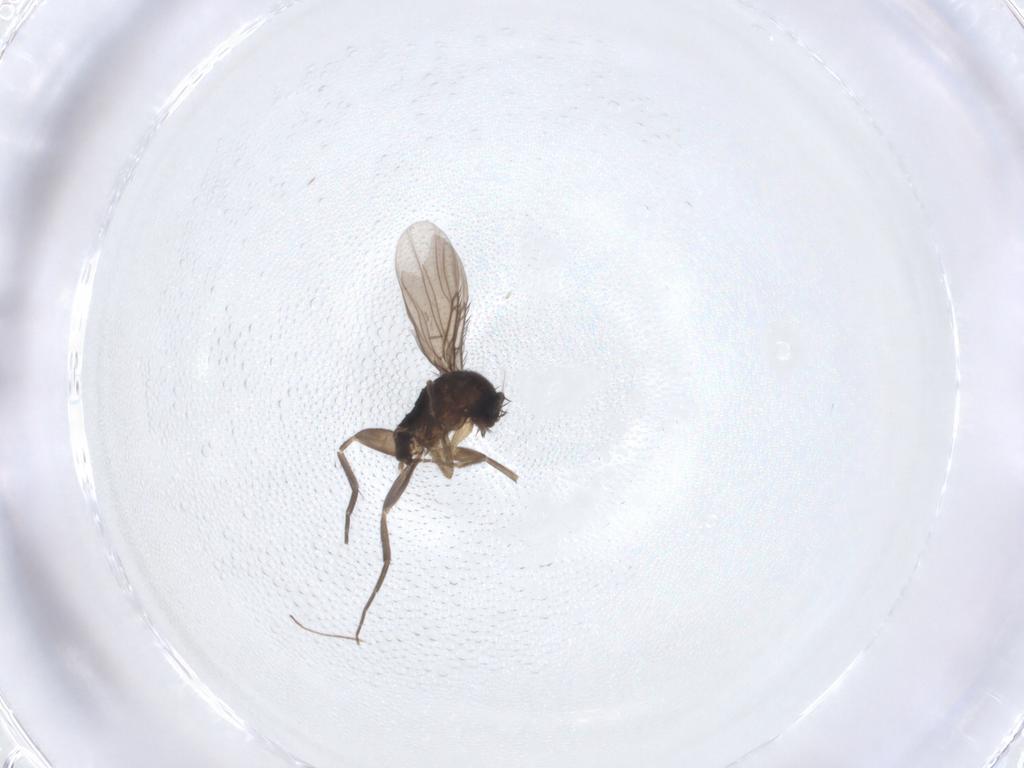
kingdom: Animalia
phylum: Arthropoda
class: Insecta
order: Diptera
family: Phoridae
